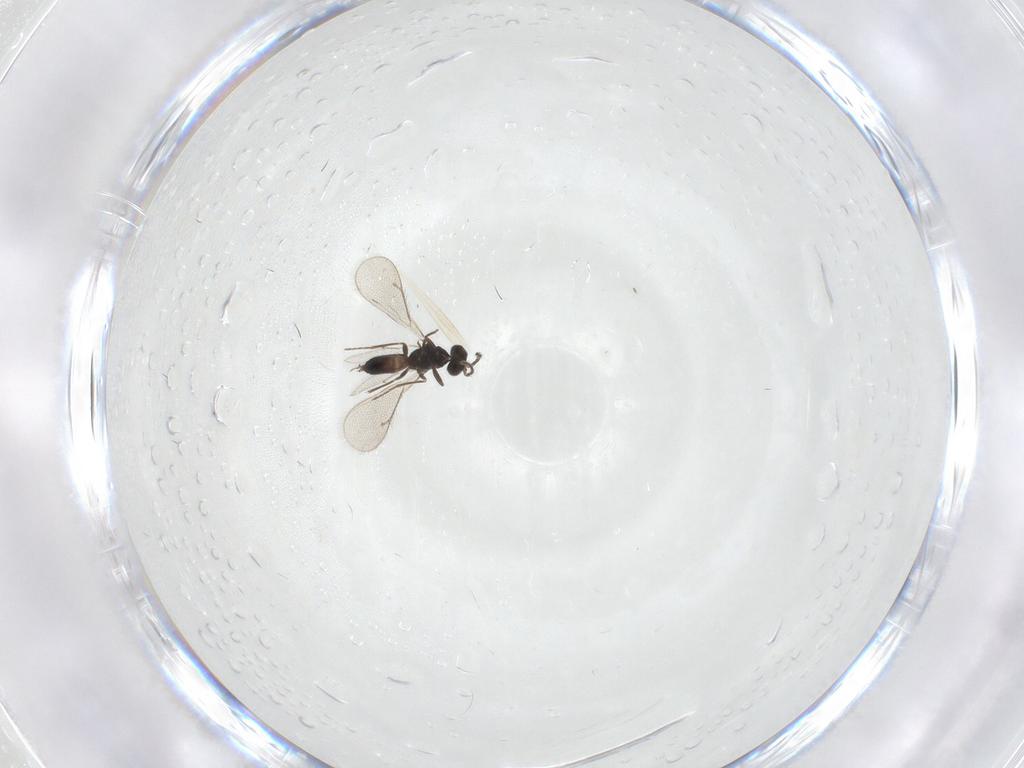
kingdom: Animalia
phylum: Arthropoda
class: Insecta
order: Hymenoptera
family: Eulophidae
